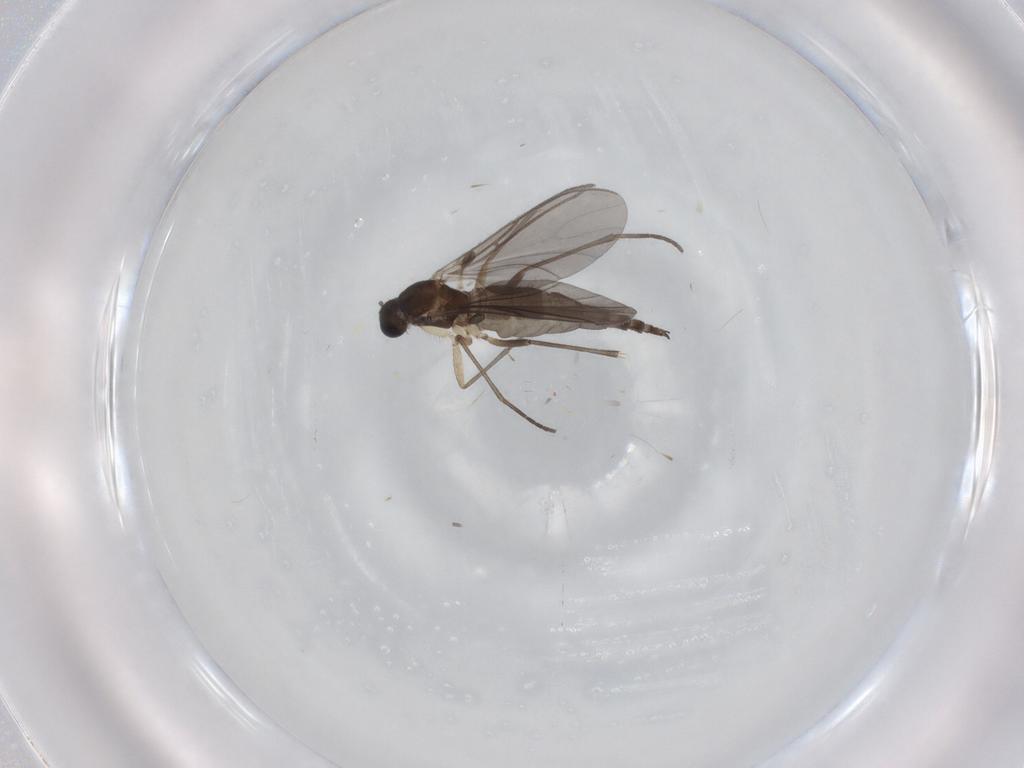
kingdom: Animalia
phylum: Arthropoda
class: Insecta
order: Diptera
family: Sciaridae
